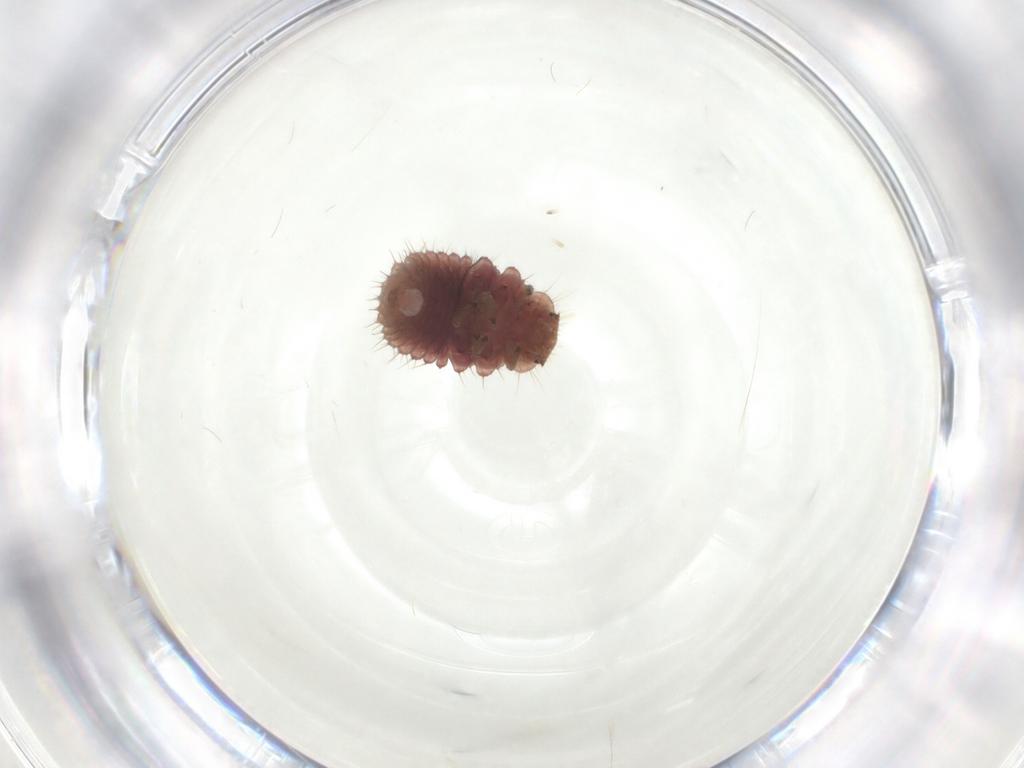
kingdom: Animalia
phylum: Arthropoda
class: Insecta
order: Coleoptera
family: Coccinellidae
